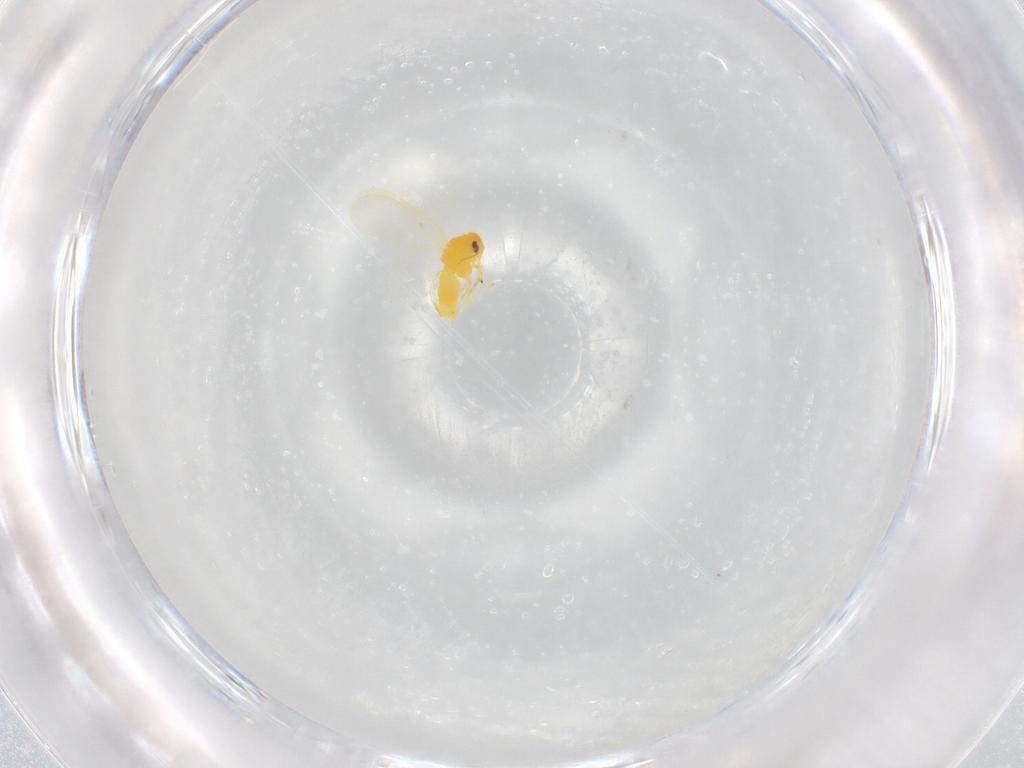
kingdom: Animalia
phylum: Arthropoda
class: Insecta
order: Hemiptera
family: Aleyrodidae
